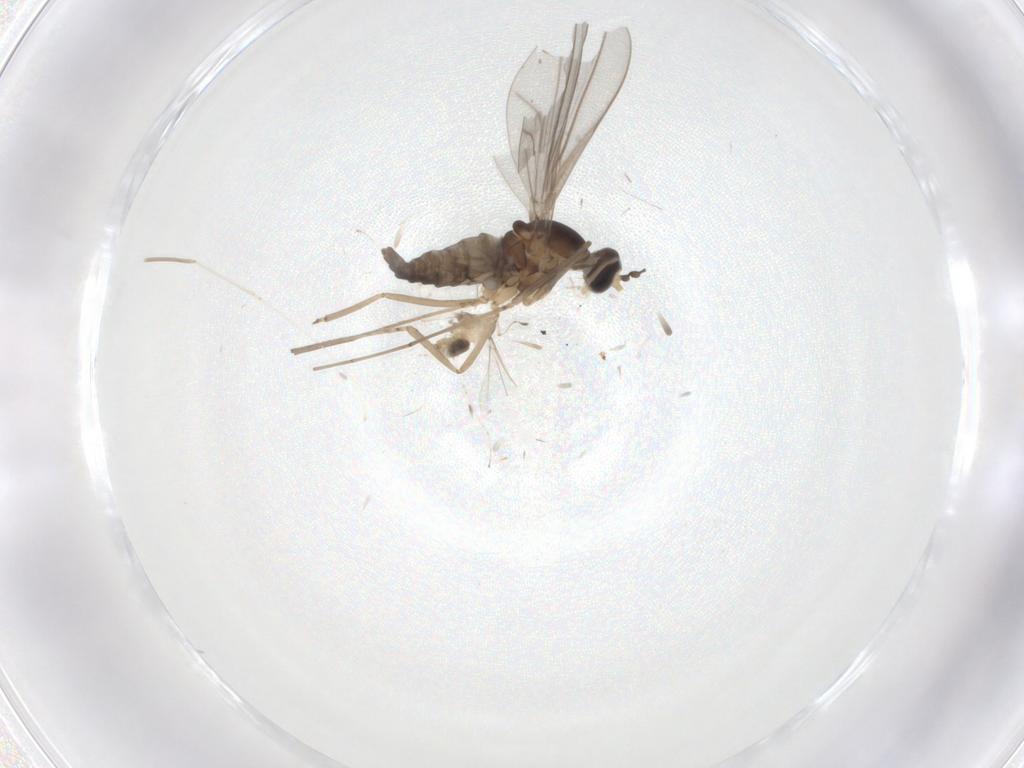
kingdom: Animalia
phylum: Arthropoda
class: Insecta
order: Diptera
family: Cecidomyiidae
